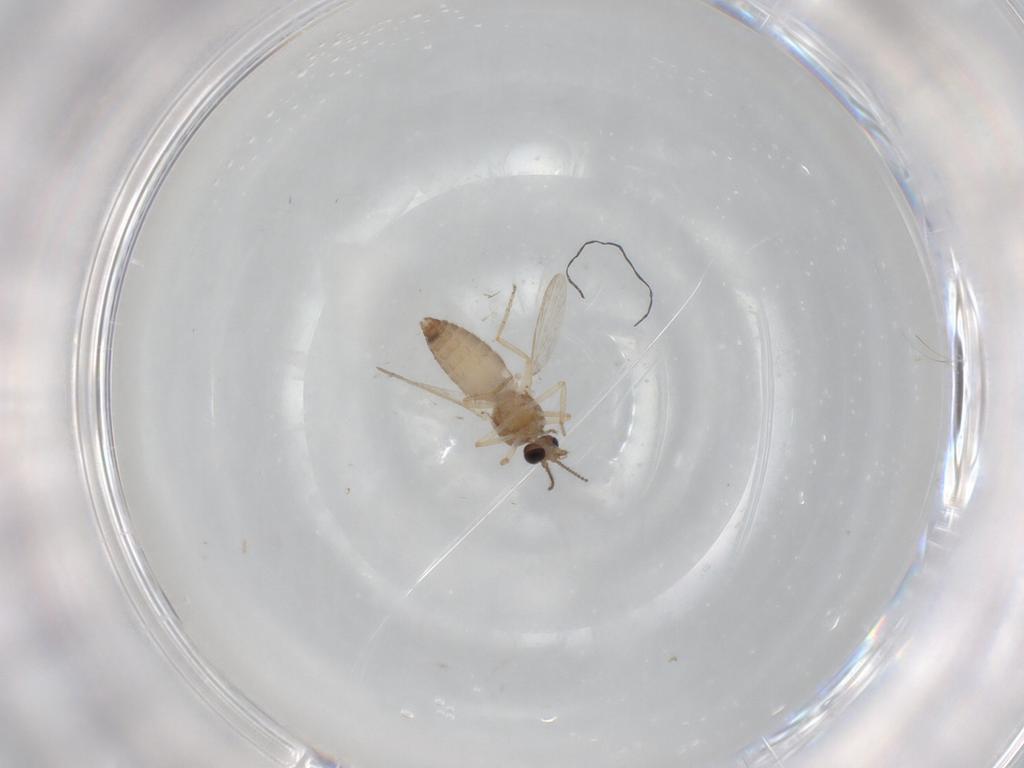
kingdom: Animalia
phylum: Arthropoda
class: Insecta
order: Diptera
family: Ceratopogonidae
